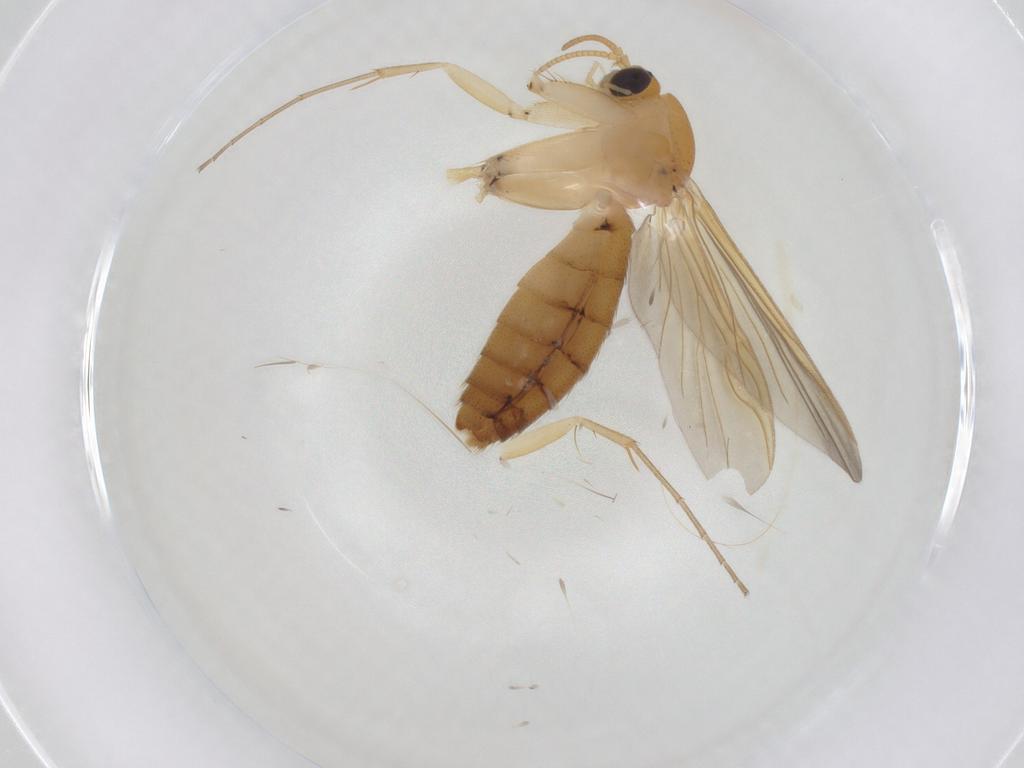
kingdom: Animalia
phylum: Arthropoda
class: Insecta
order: Diptera
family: Mycetophilidae
